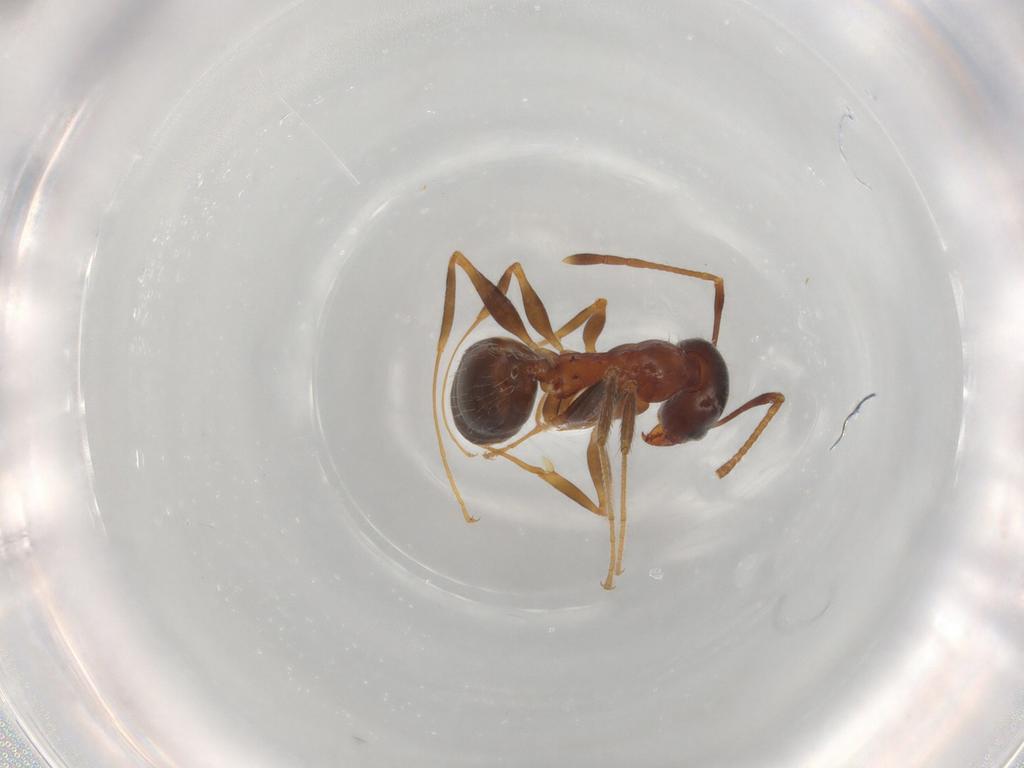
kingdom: Animalia
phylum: Arthropoda
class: Insecta
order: Hymenoptera
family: Formicidae
